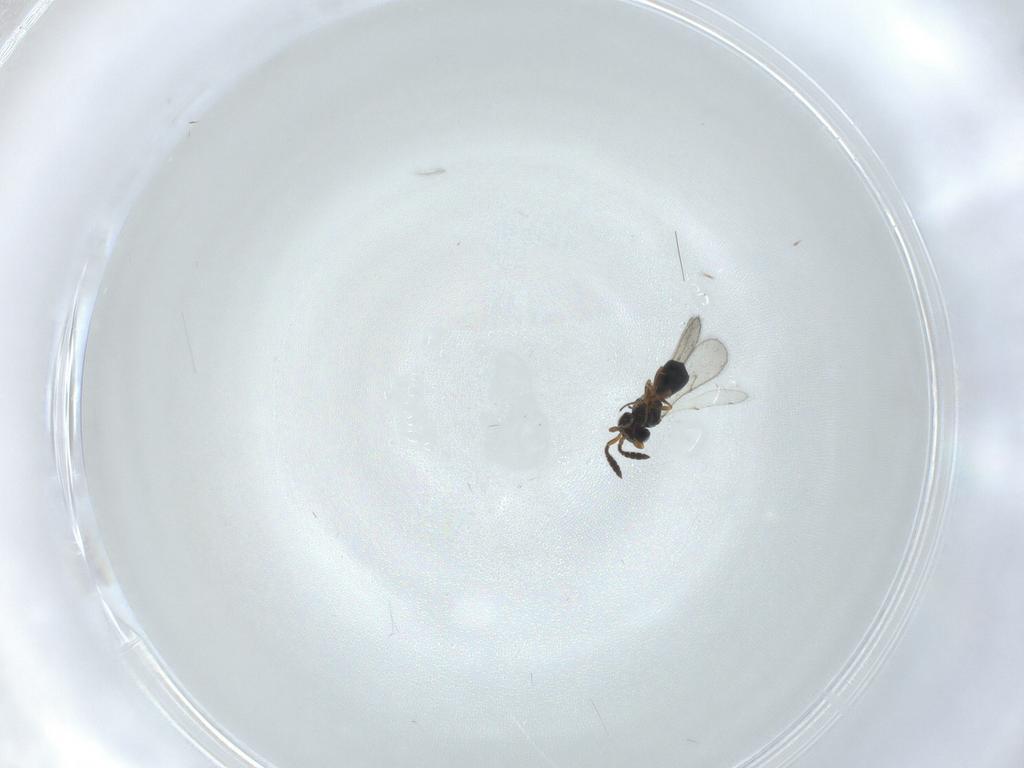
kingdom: Animalia
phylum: Arthropoda
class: Insecta
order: Hymenoptera
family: Scelionidae
